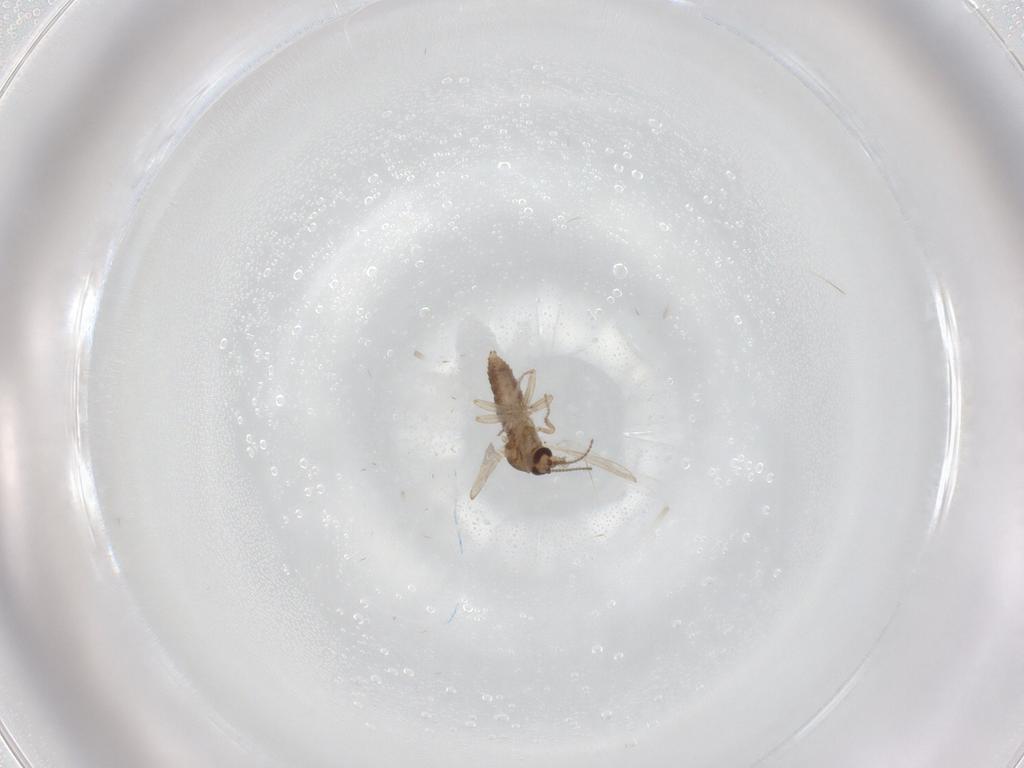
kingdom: Animalia
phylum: Arthropoda
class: Insecta
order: Diptera
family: Ceratopogonidae
